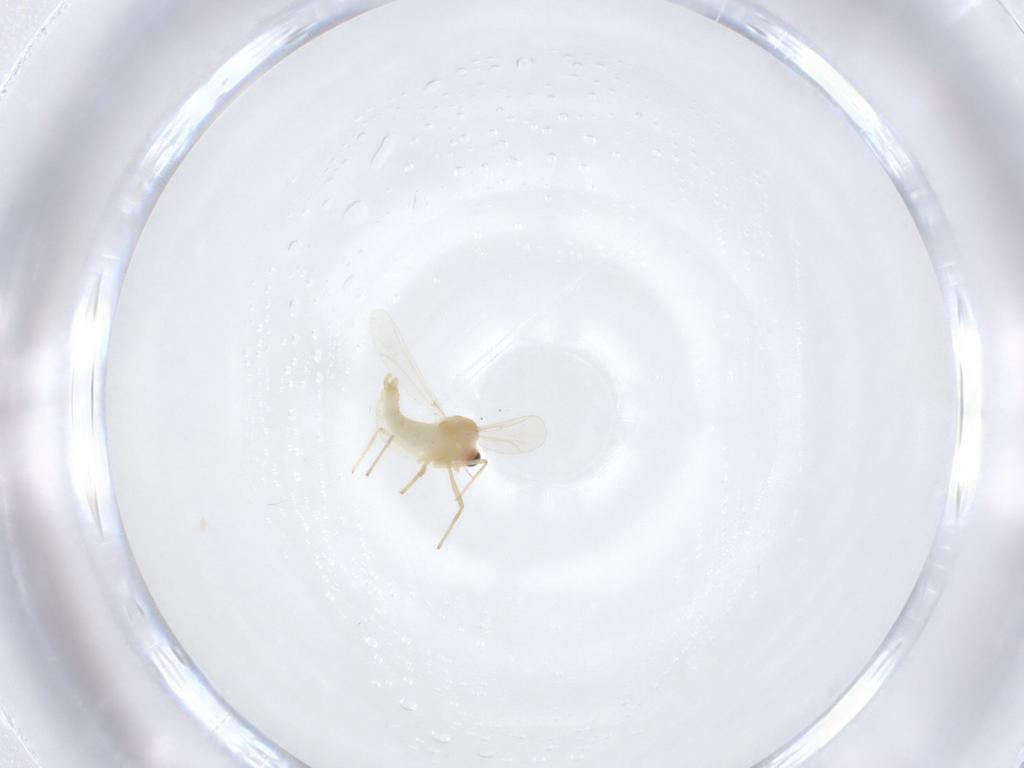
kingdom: Animalia
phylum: Arthropoda
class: Insecta
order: Diptera
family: Chironomidae
